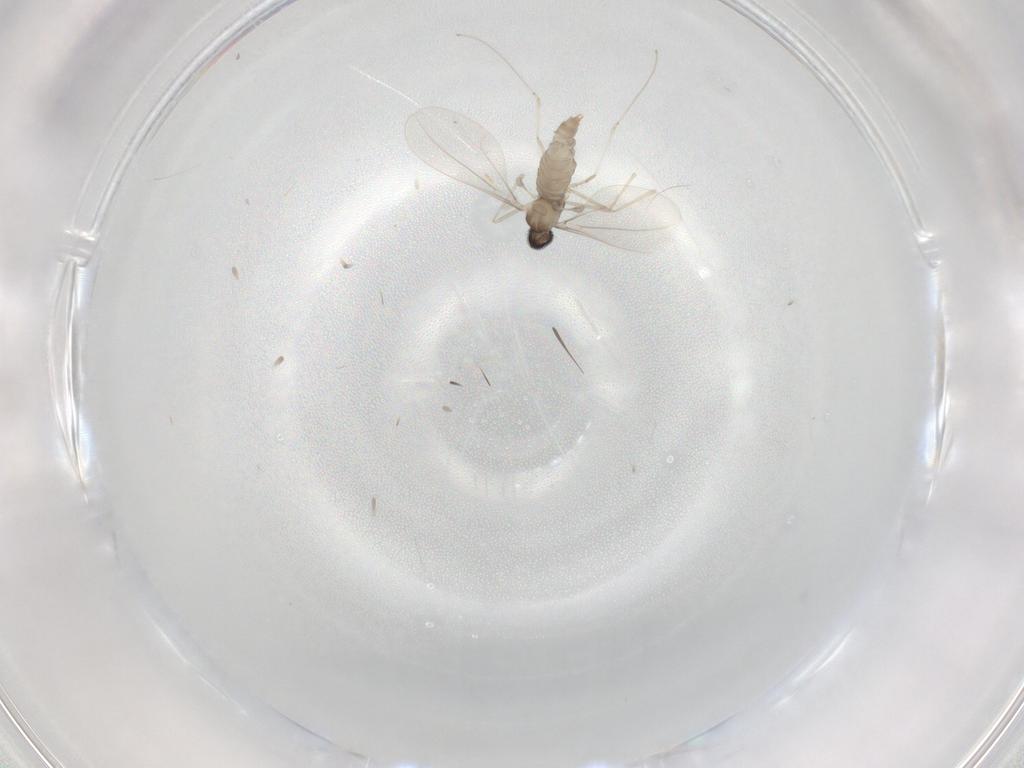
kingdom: Animalia
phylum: Arthropoda
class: Insecta
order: Diptera
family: Cecidomyiidae
